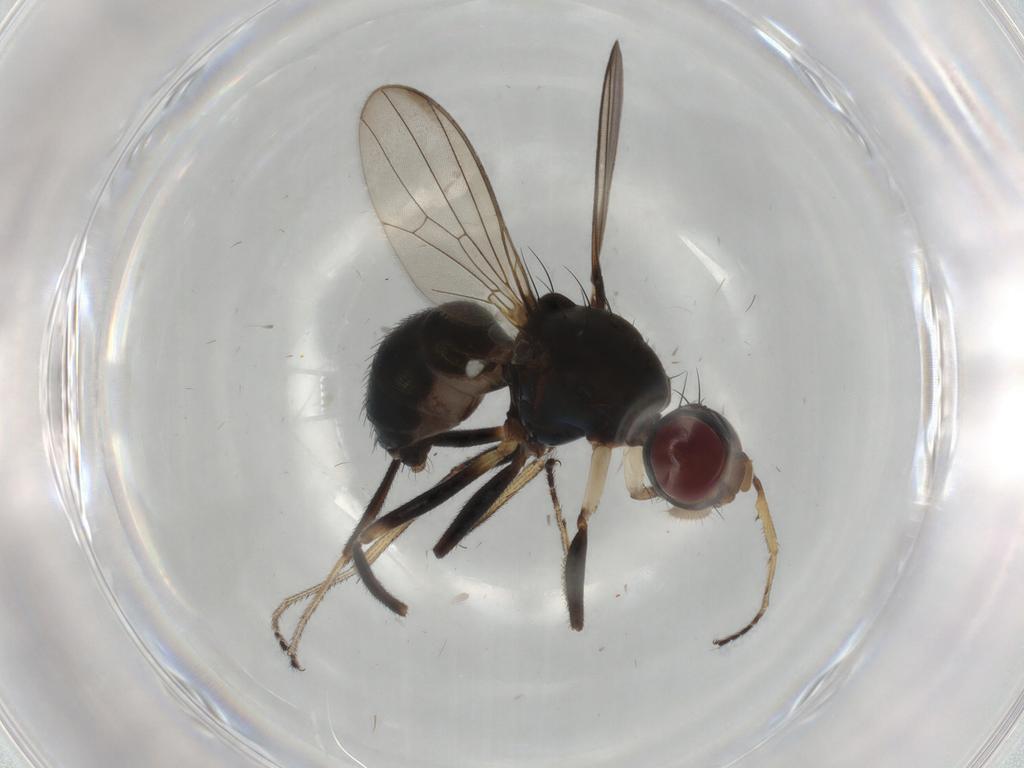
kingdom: Animalia
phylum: Arthropoda
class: Insecta
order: Diptera
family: Sepsidae
